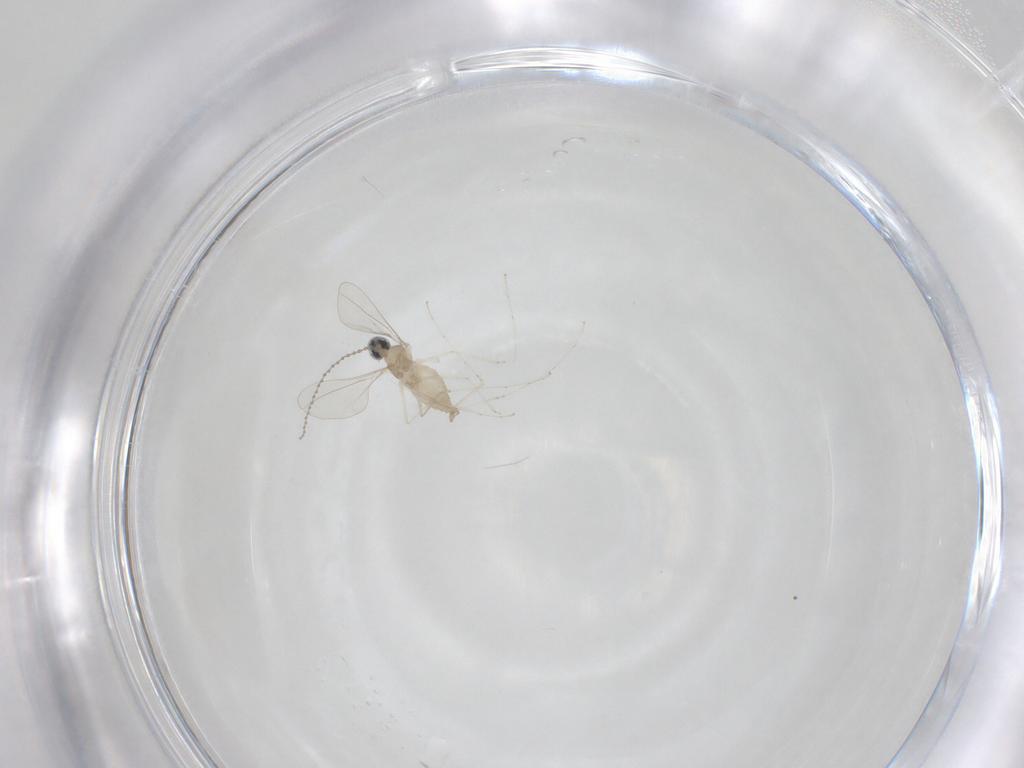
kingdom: Animalia
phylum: Arthropoda
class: Insecta
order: Diptera
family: Cecidomyiidae
